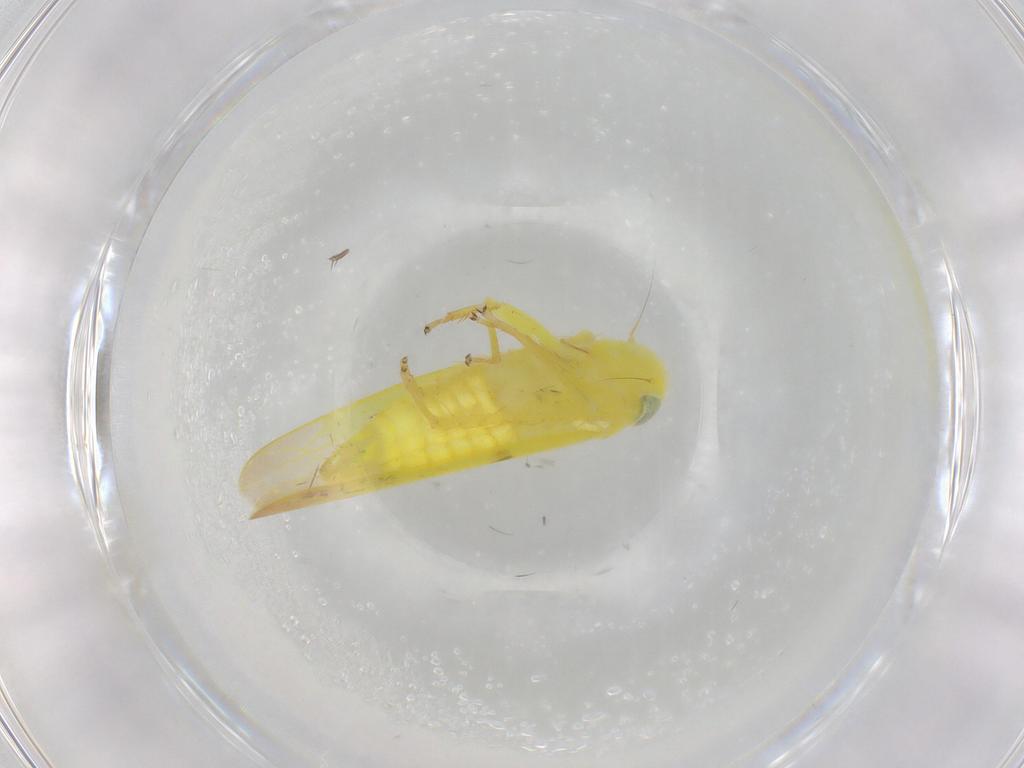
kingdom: Animalia
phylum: Arthropoda
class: Insecta
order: Hemiptera
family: Cicadellidae
